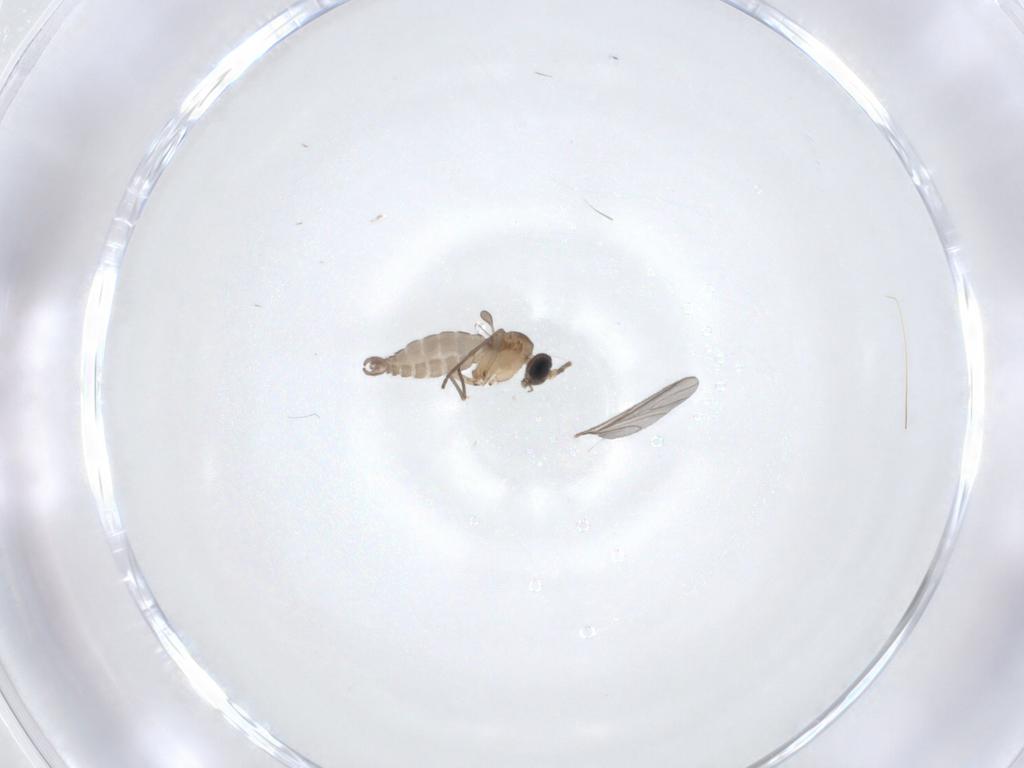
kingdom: Animalia
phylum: Arthropoda
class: Insecta
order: Diptera
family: Sciaridae
